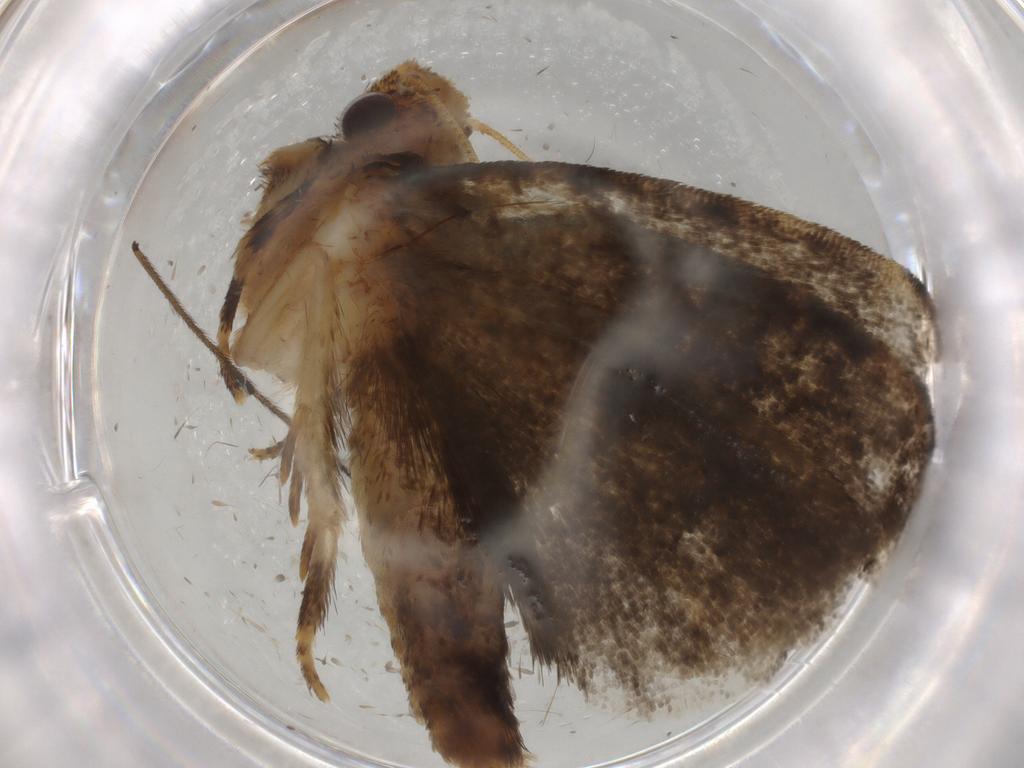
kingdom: Animalia
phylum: Arthropoda
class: Insecta
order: Lepidoptera
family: Tineidae
